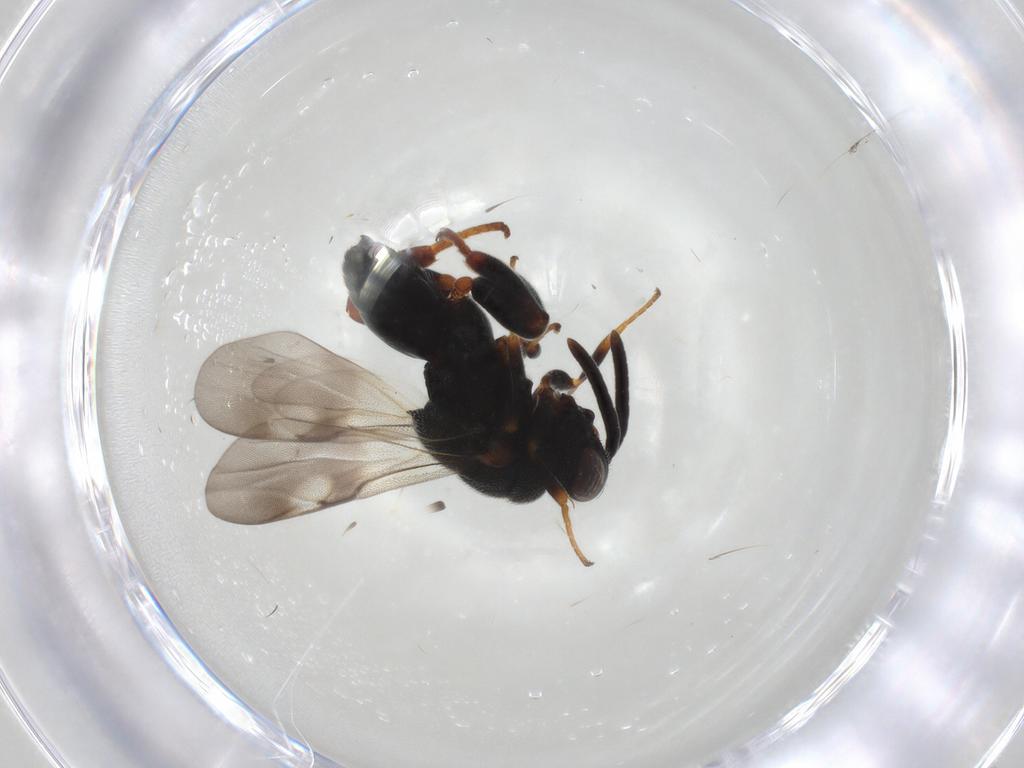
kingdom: Animalia
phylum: Arthropoda
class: Insecta
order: Hymenoptera
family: Chalcididae
